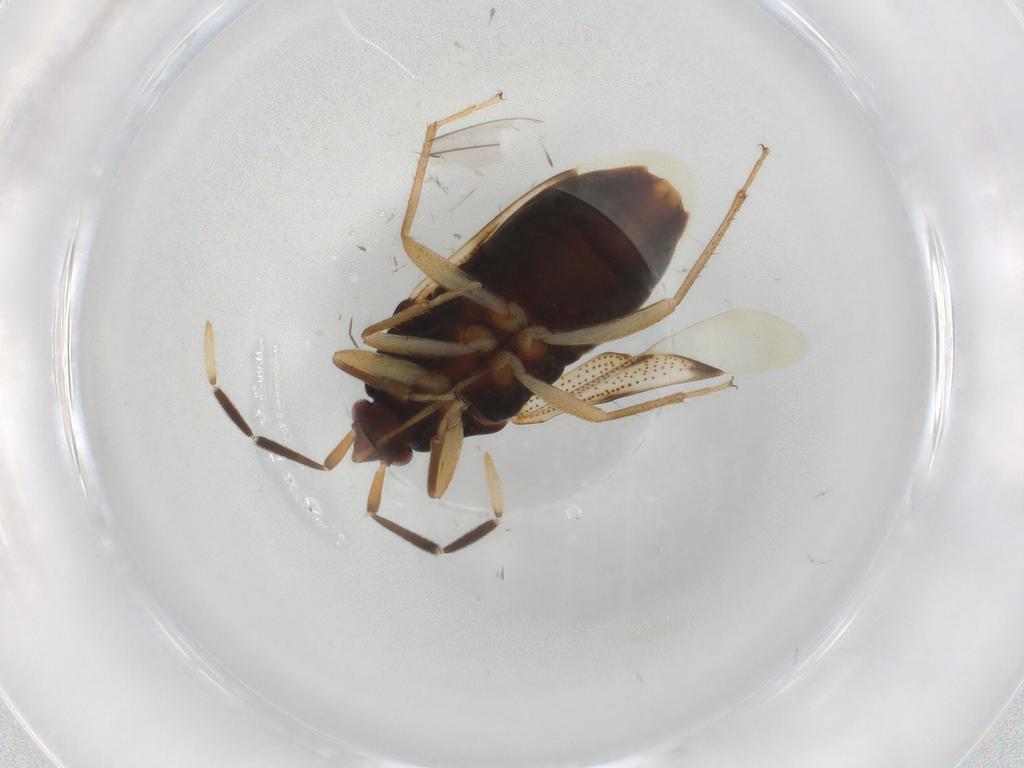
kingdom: Animalia
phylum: Arthropoda
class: Insecta
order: Hemiptera
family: Rhyparochromidae
